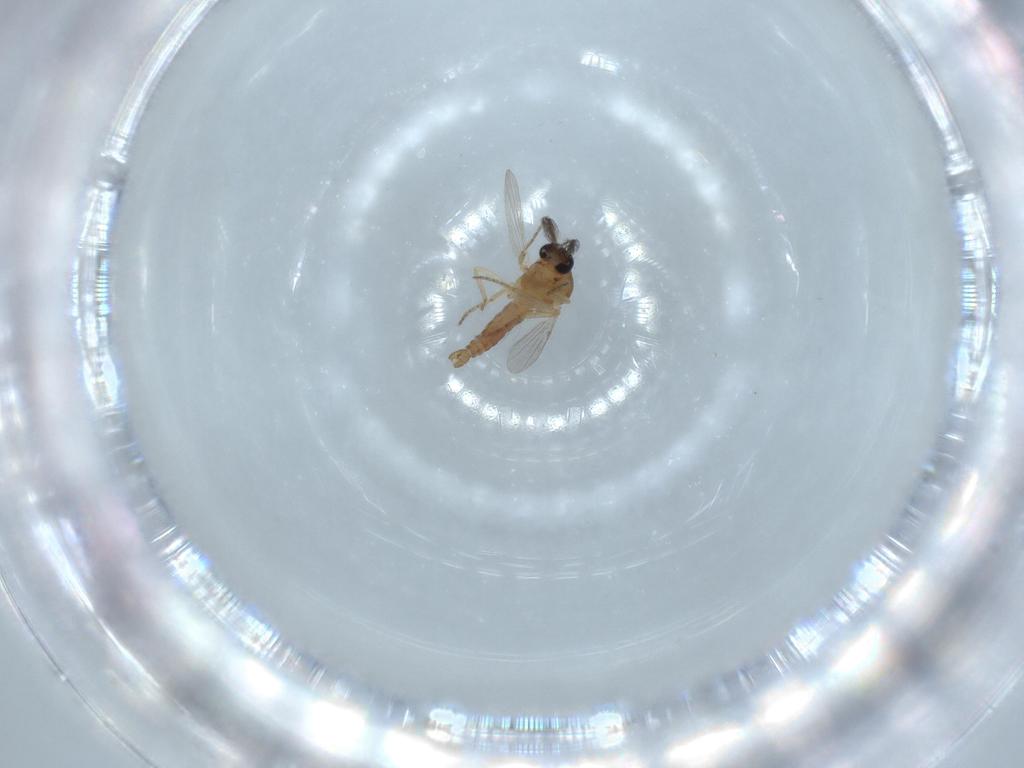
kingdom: Animalia
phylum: Arthropoda
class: Insecta
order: Diptera
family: Ceratopogonidae
